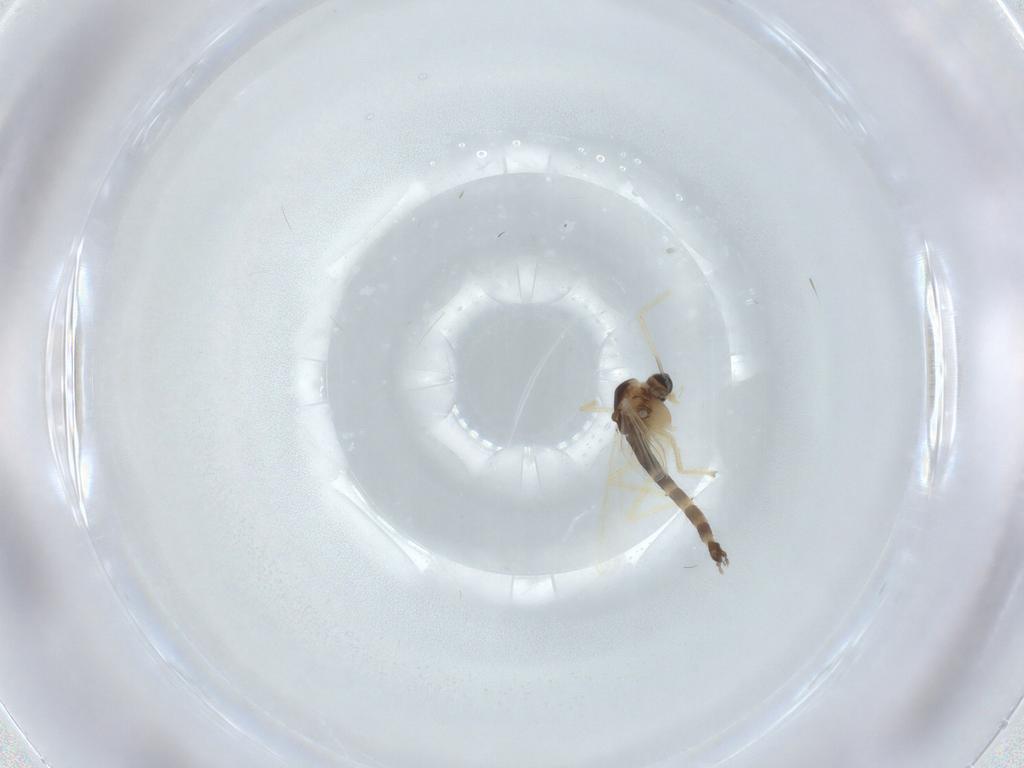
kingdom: Animalia
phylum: Arthropoda
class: Insecta
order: Diptera
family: Chironomidae
